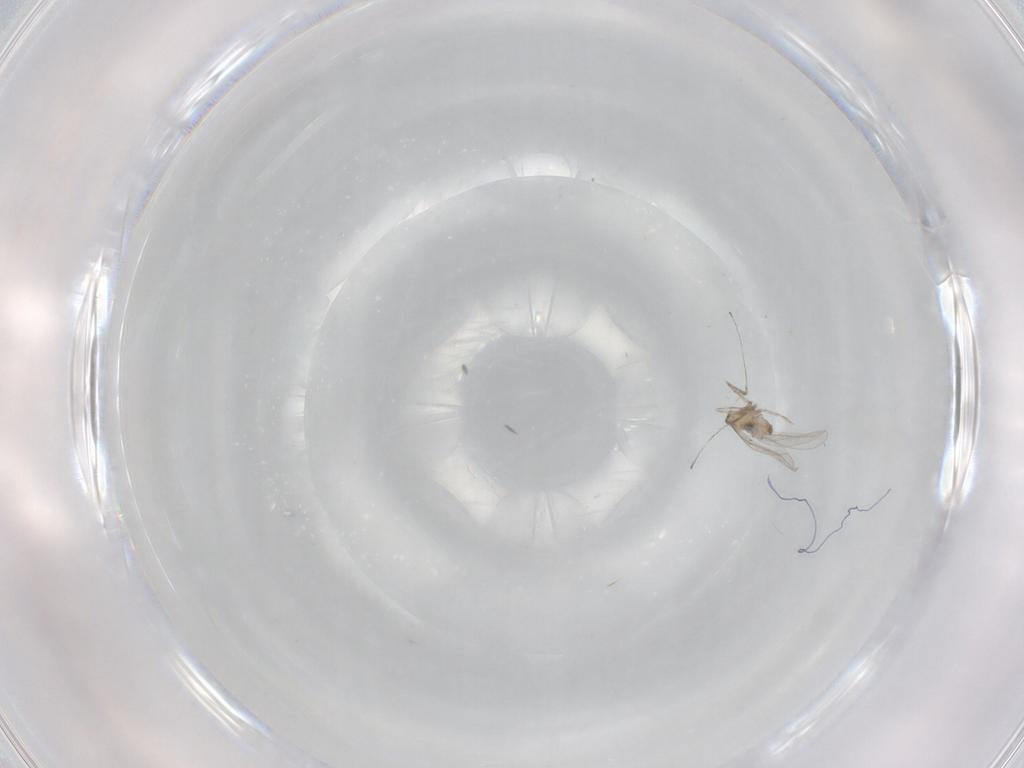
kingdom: Animalia
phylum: Arthropoda
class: Insecta
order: Diptera
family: Cecidomyiidae
